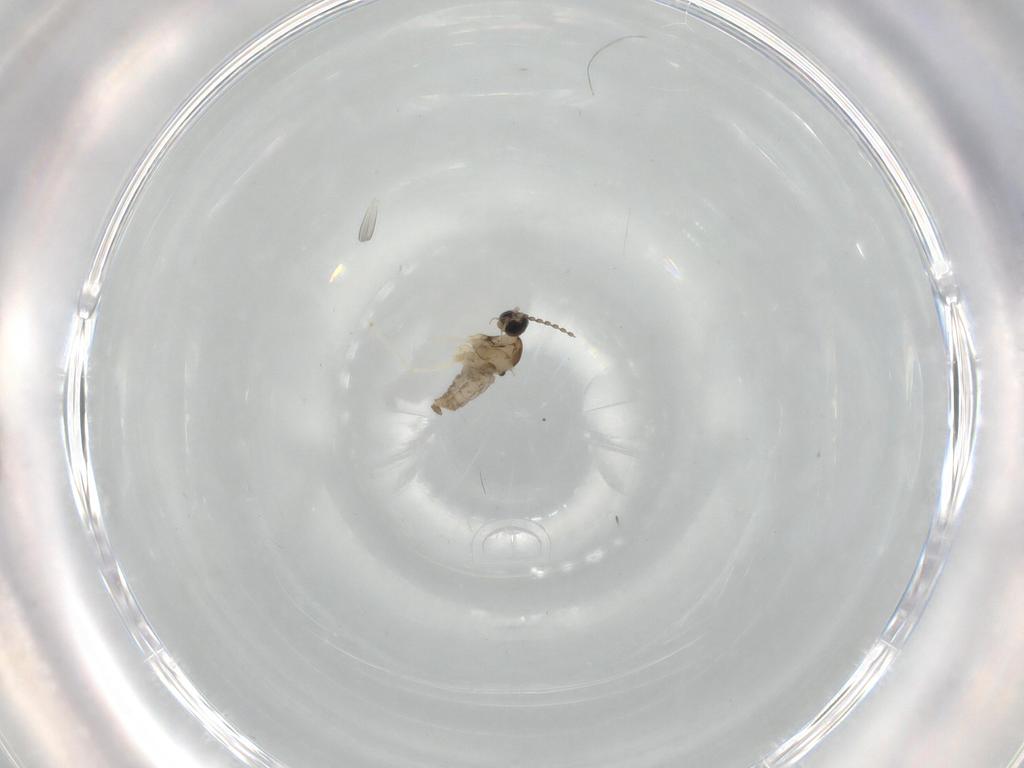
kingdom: Animalia
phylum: Arthropoda
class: Insecta
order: Diptera
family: Cecidomyiidae
